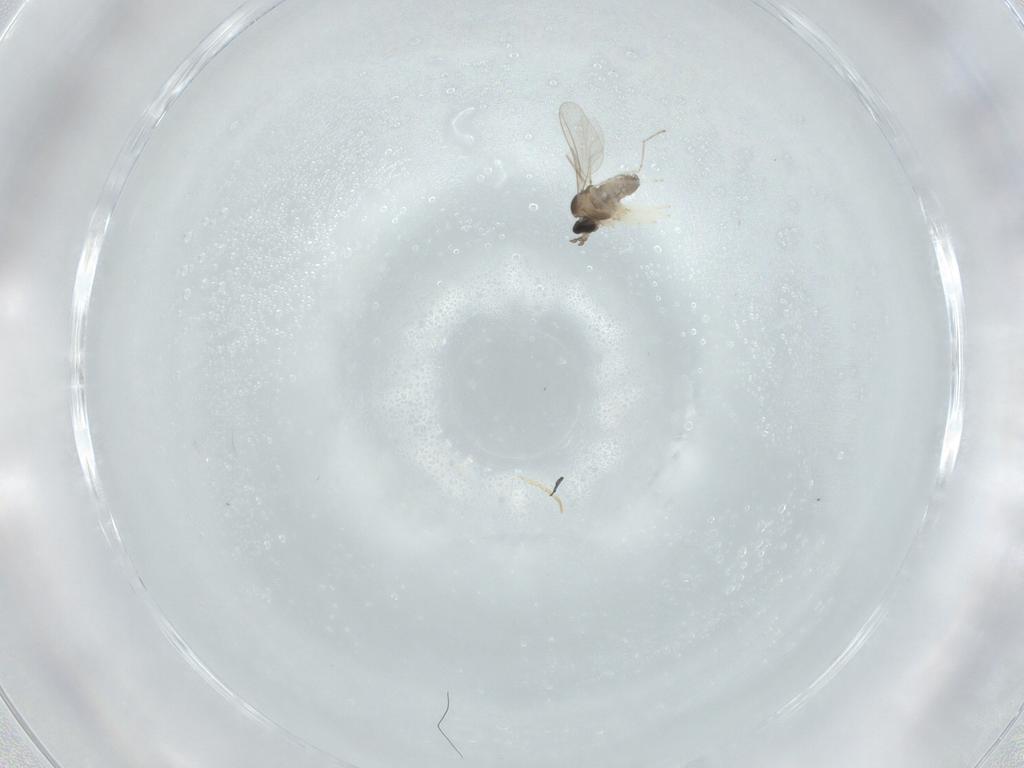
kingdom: Animalia
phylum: Arthropoda
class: Insecta
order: Diptera
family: Cecidomyiidae
